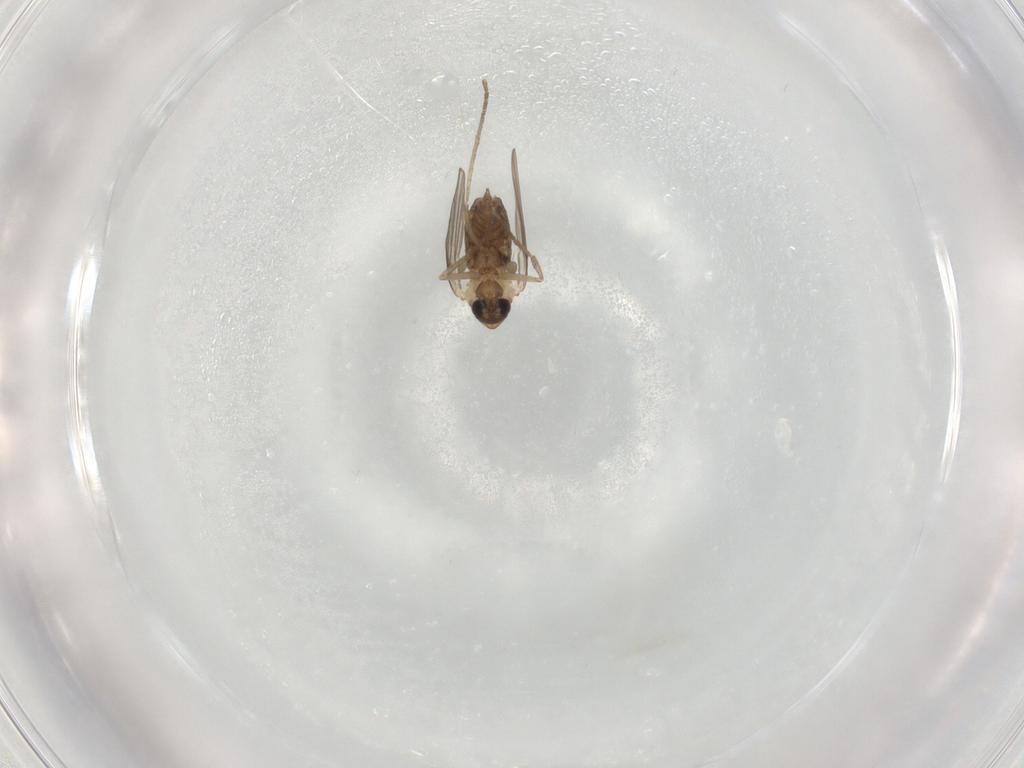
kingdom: Animalia
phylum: Arthropoda
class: Insecta
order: Diptera
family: Psychodidae
